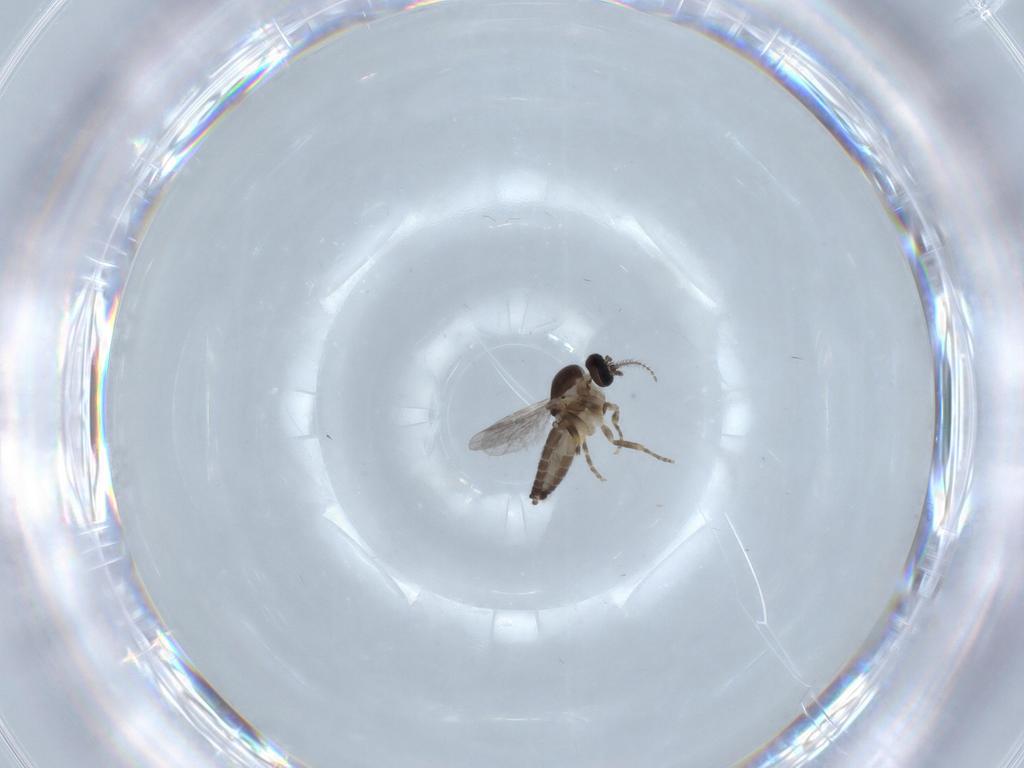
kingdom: Animalia
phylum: Arthropoda
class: Insecta
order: Diptera
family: Ceratopogonidae
